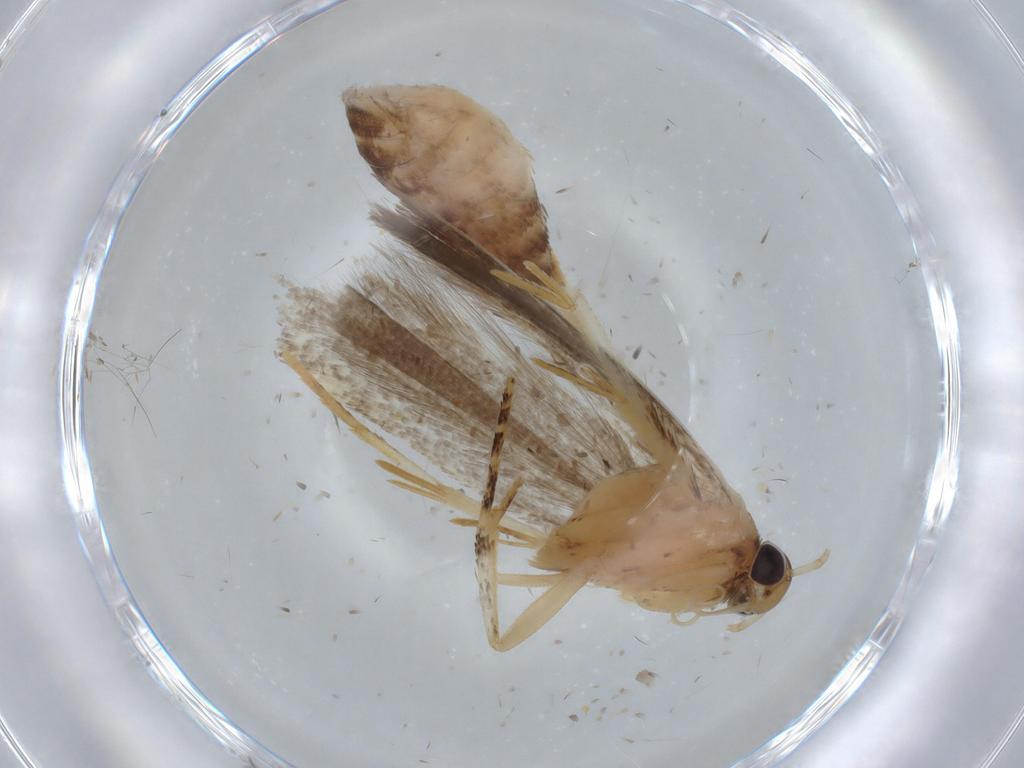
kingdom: Animalia
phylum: Arthropoda
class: Insecta
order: Lepidoptera
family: Gelechiidae
